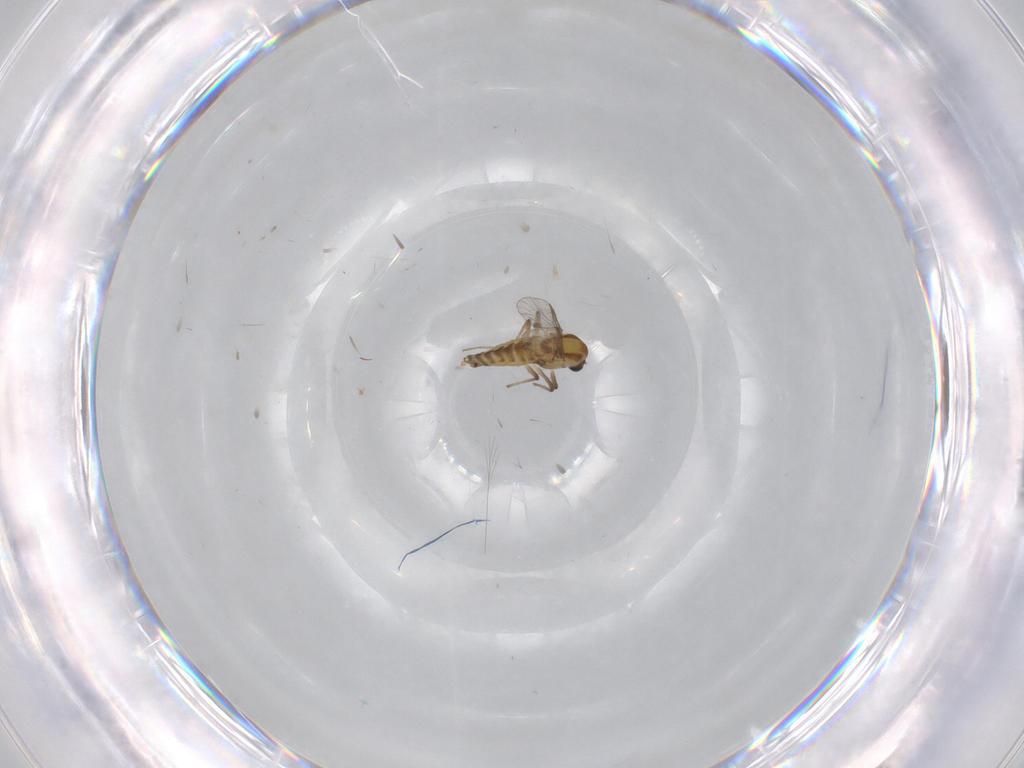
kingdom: Animalia
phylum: Arthropoda
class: Insecta
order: Diptera
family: Chironomidae
